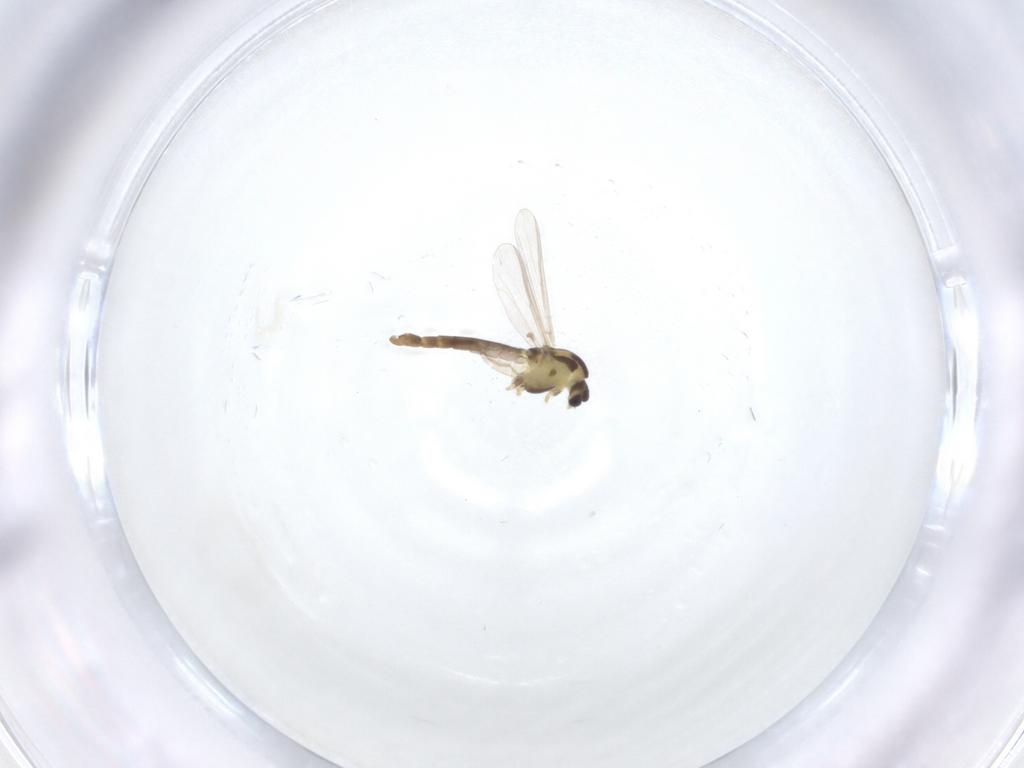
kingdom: Animalia
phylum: Arthropoda
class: Insecta
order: Diptera
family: Chironomidae
